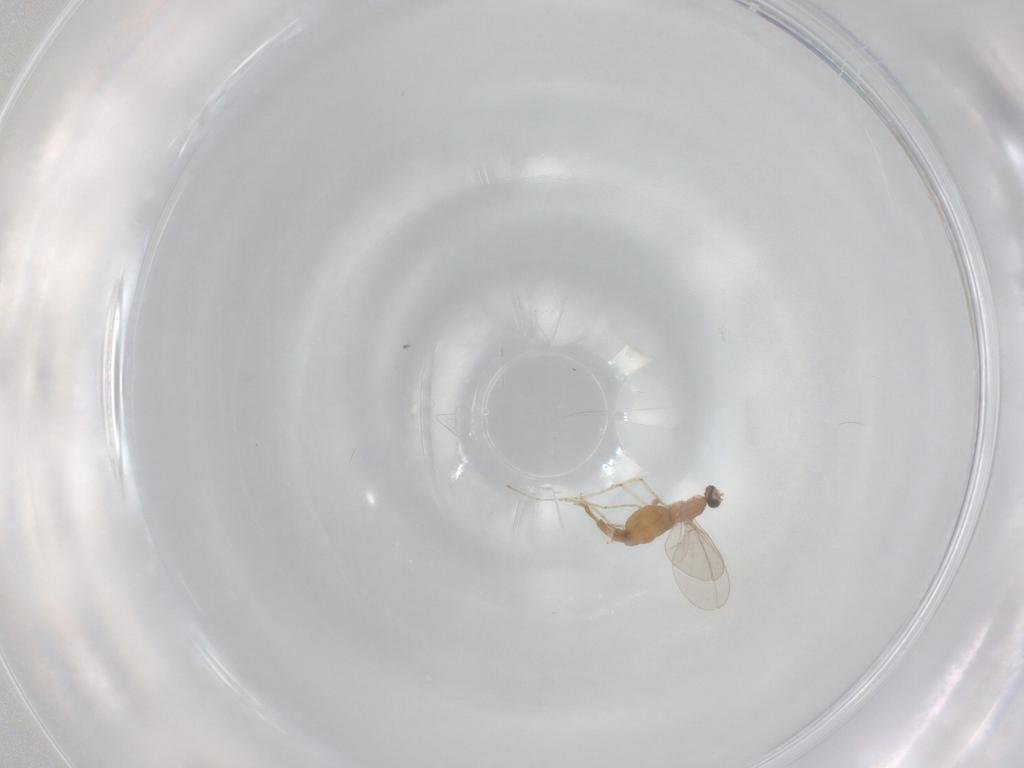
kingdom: Animalia
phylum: Arthropoda
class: Insecta
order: Diptera
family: Cecidomyiidae
